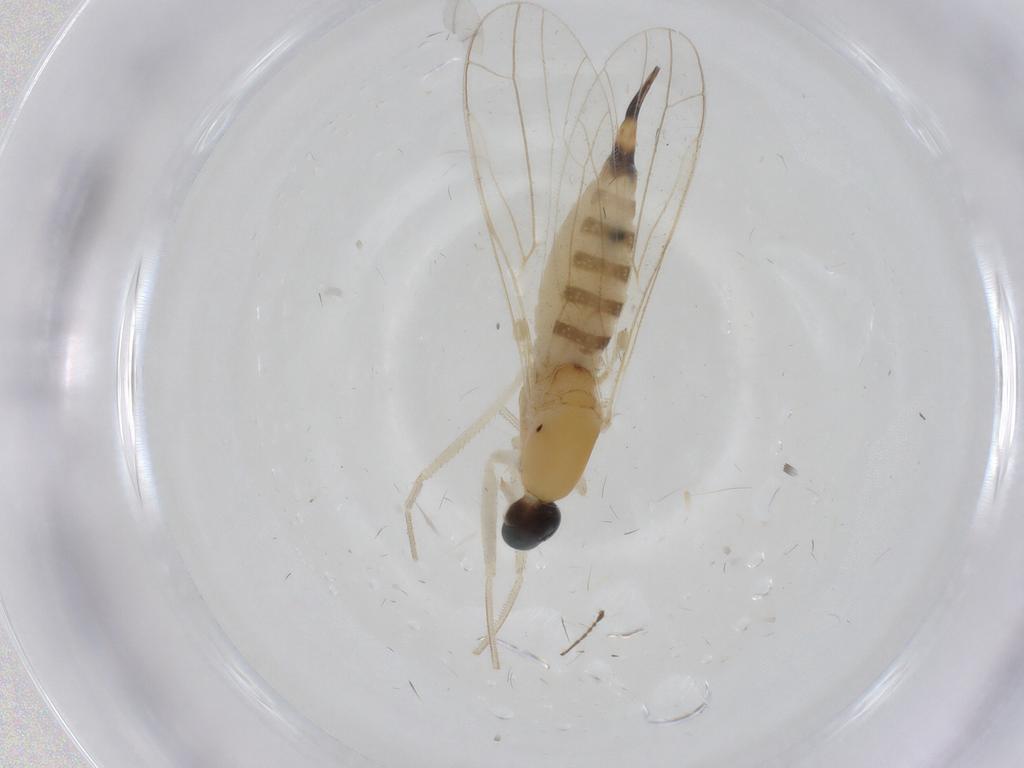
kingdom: Animalia
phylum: Arthropoda
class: Insecta
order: Diptera
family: Empididae
